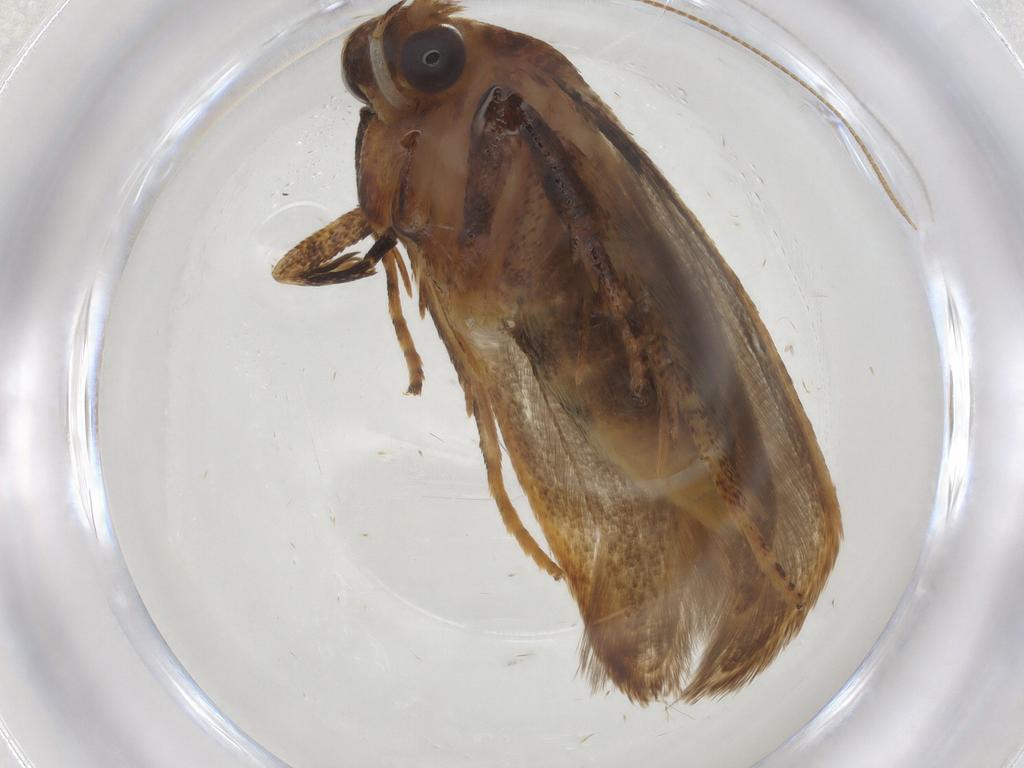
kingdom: Animalia
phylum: Arthropoda
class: Insecta
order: Lepidoptera
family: Blastobasidae
